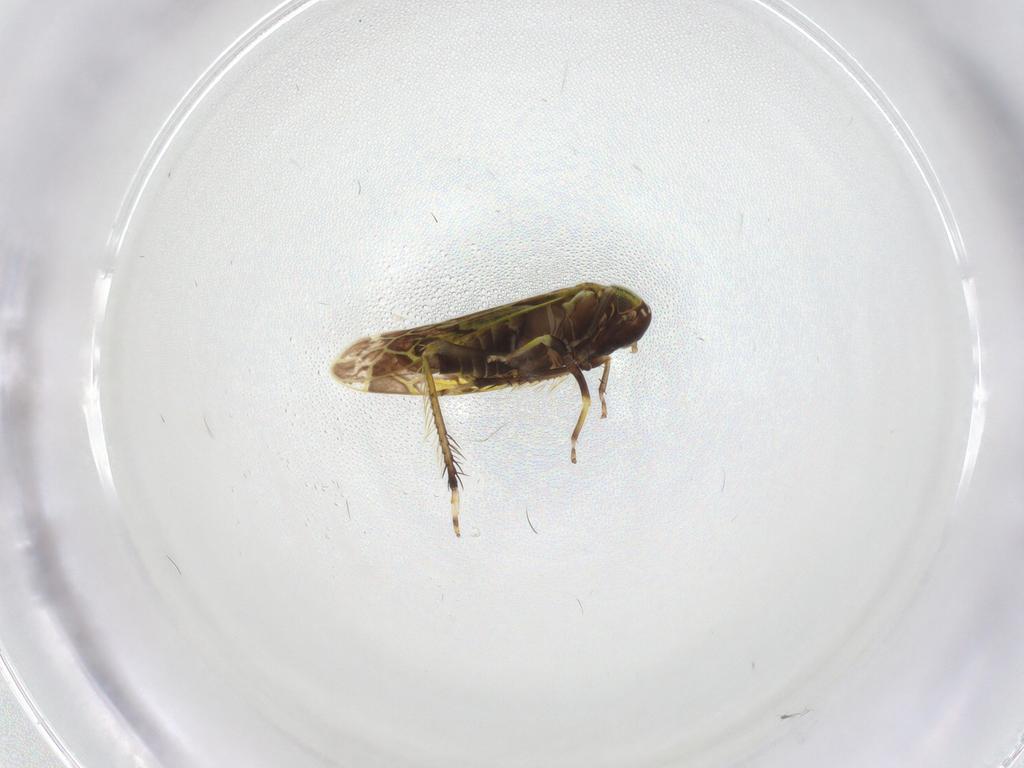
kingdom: Animalia
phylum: Arthropoda
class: Insecta
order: Hemiptera
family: Cicadellidae
